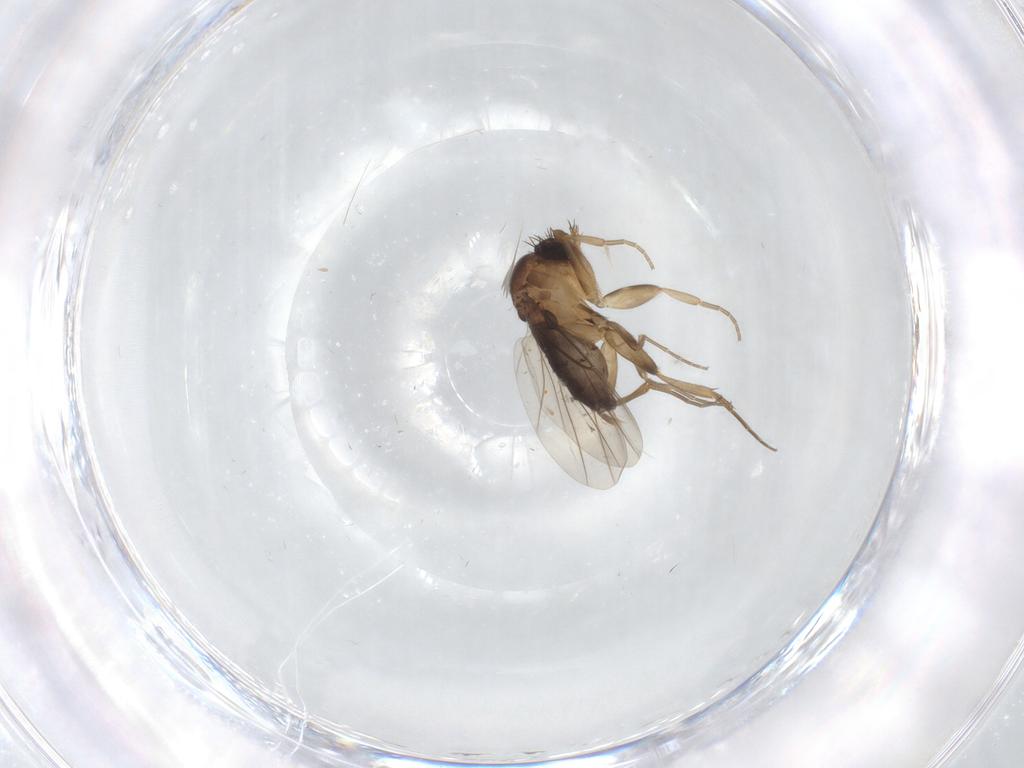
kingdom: Animalia
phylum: Arthropoda
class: Insecta
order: Diptera
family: Phoridae
